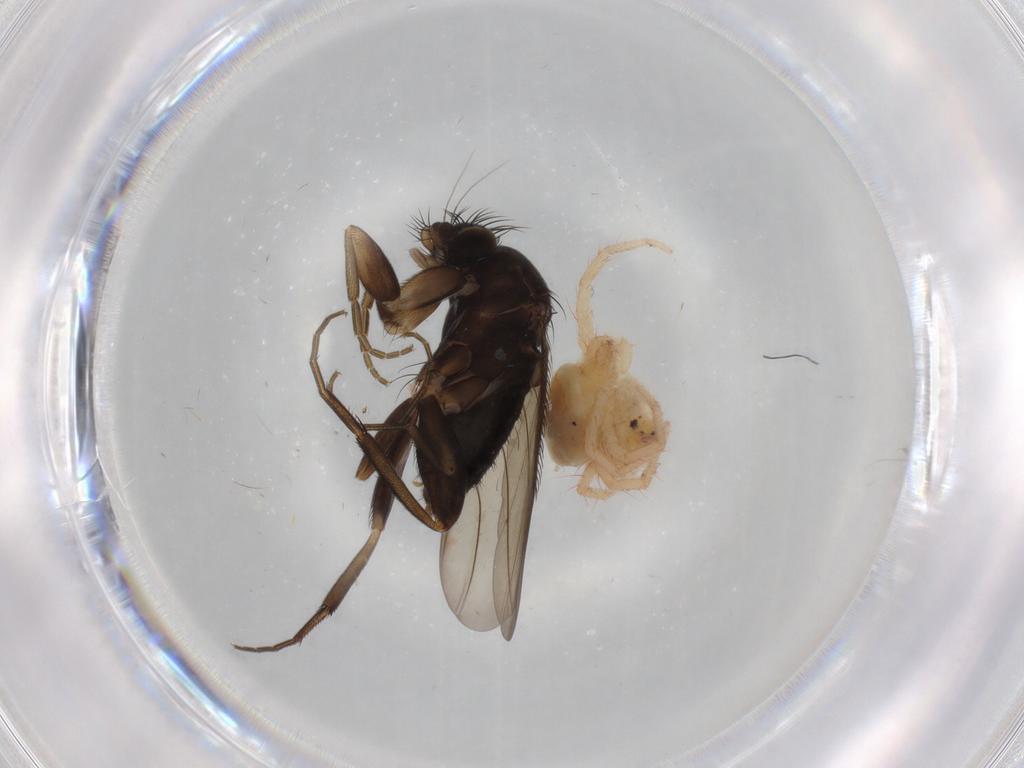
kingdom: Animalia
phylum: Arthropoda
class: Insecta
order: Diptera
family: Phoridae
